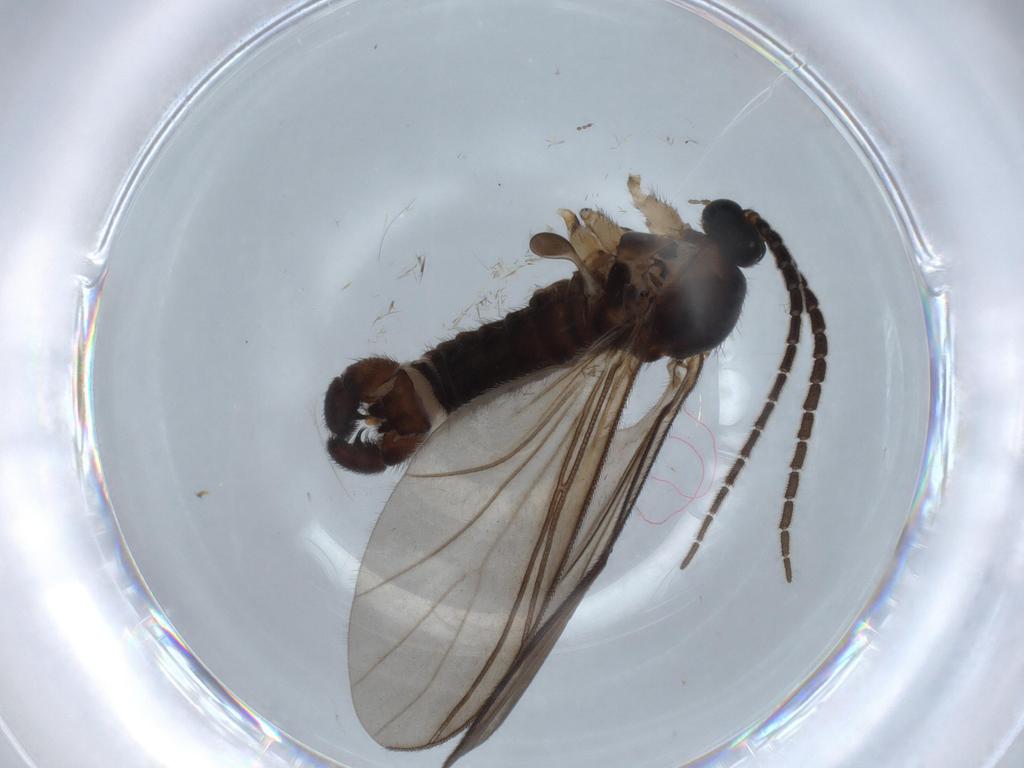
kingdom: Animalia
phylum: Arthropoda
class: Insecta
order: Diptera
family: Sciaridae
